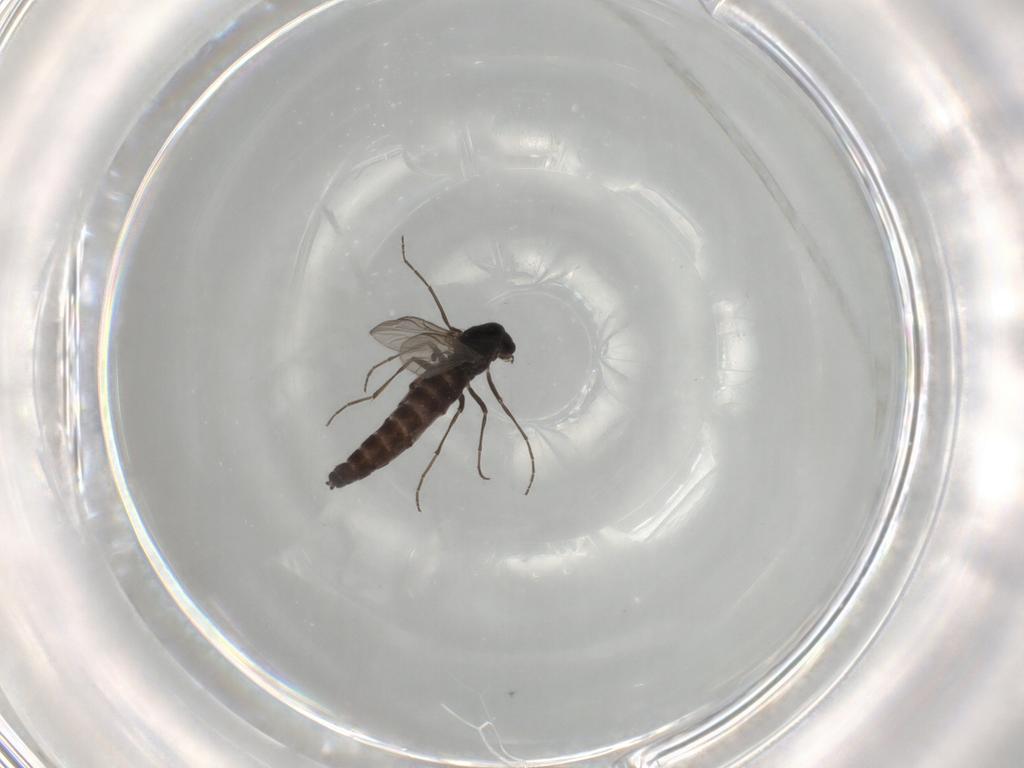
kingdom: Animalia
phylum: Arthropoda
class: Insecta
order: Diptera
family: Chironomidae
